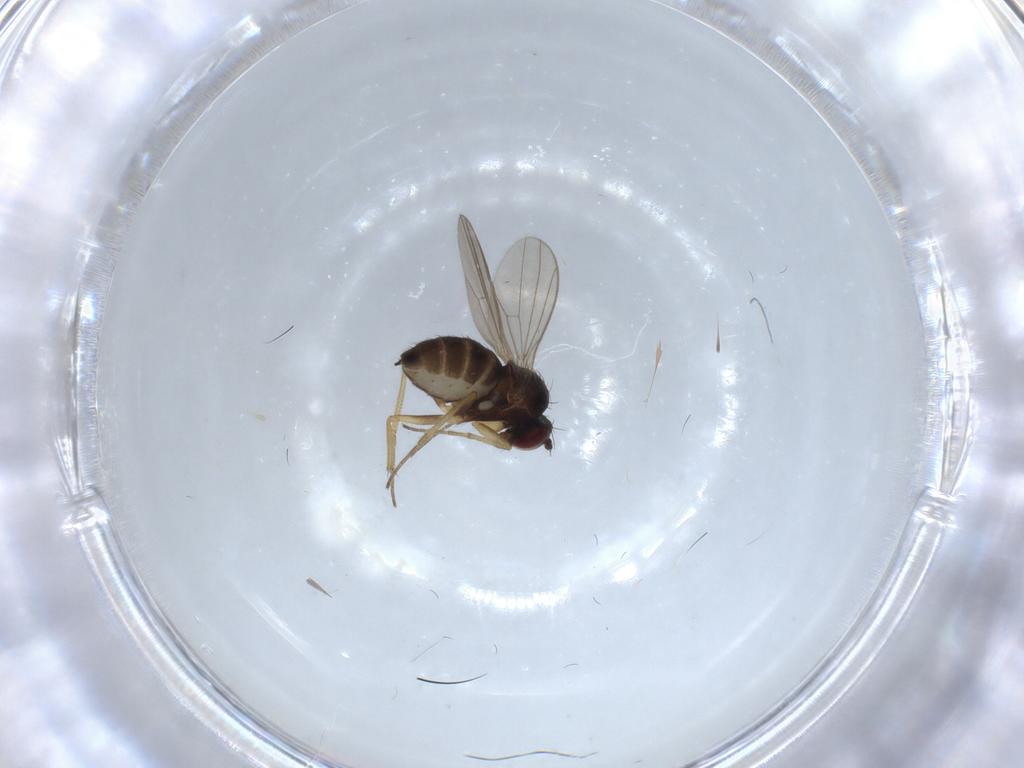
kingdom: Animalia
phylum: Arthropoda
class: Insecta
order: Diptera
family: Dolichopodidae
